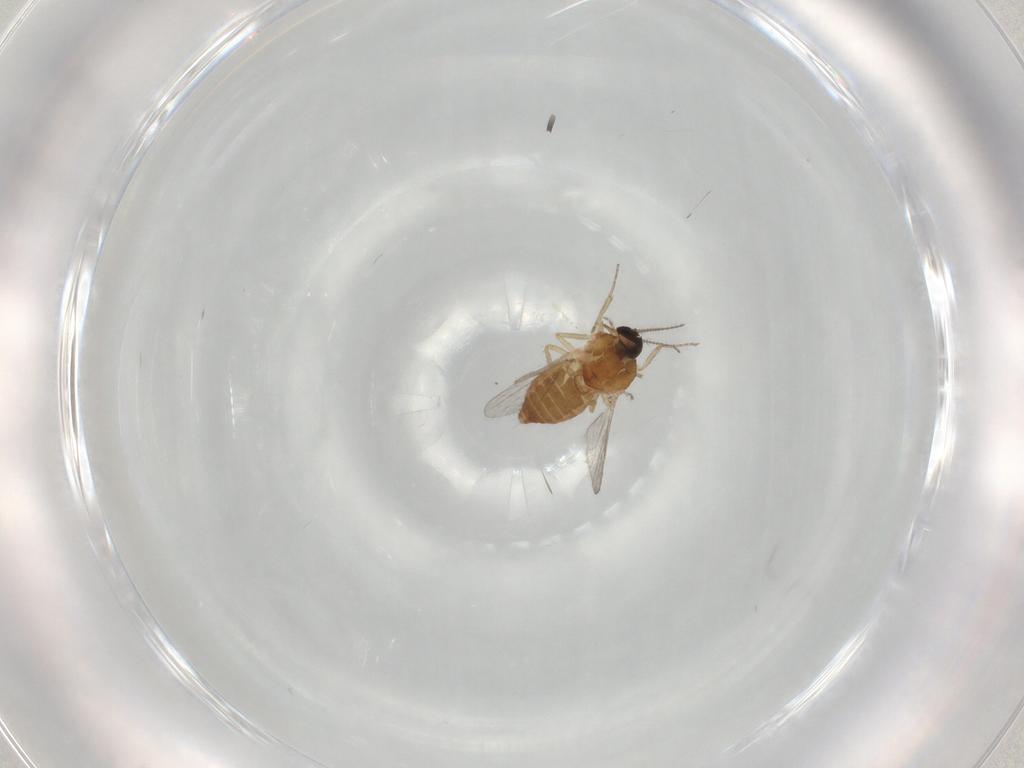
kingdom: Animalia
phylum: Arthropoda
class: Insecta
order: Diptera
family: Ceratopogonidae
